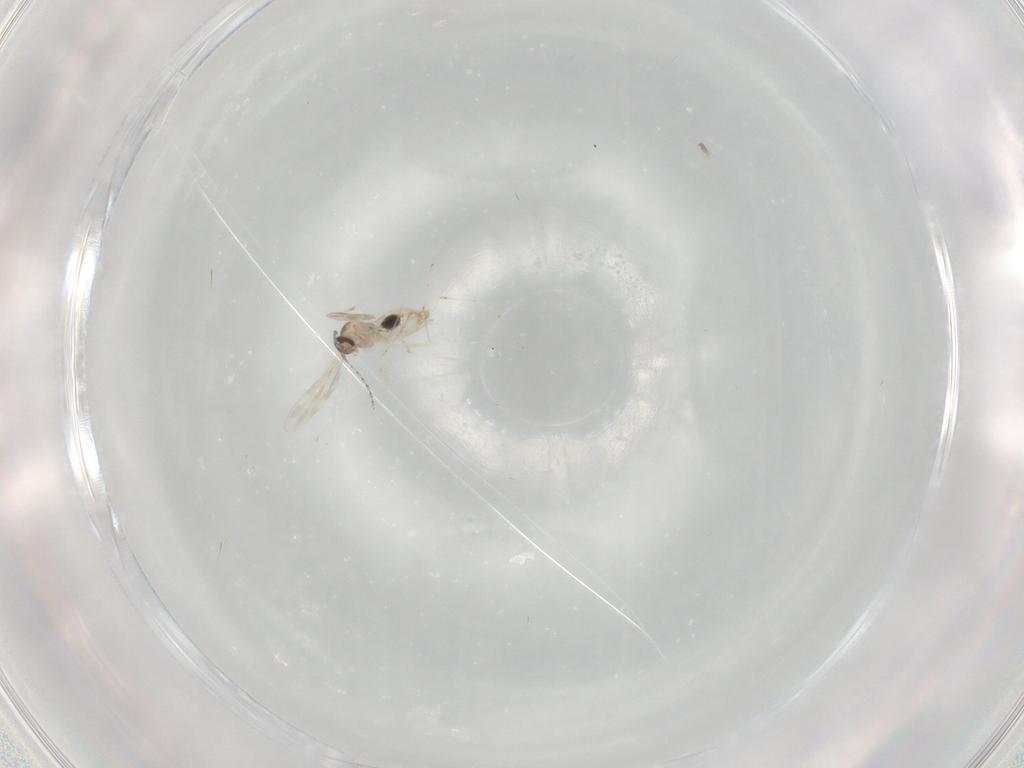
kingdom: Animalia
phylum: Arthropoda
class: Insecta
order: Diptera
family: Cecidomyiidae
